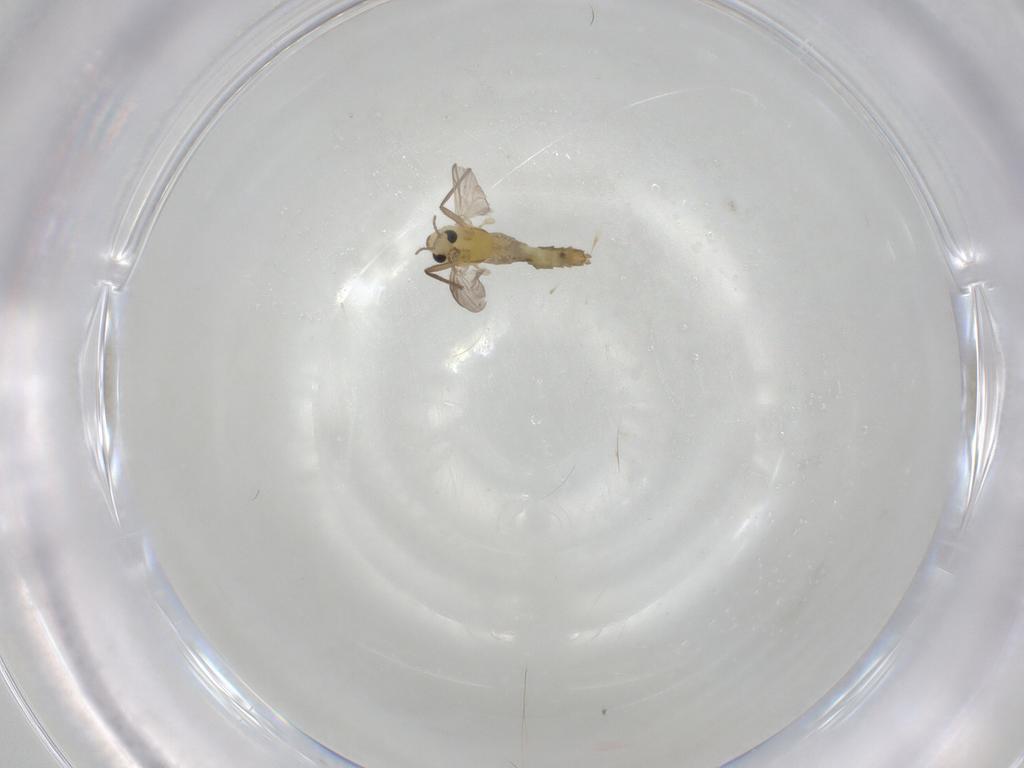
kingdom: Animalia
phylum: Arthropoda
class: Insecta
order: Diptera
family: Chironomidae
